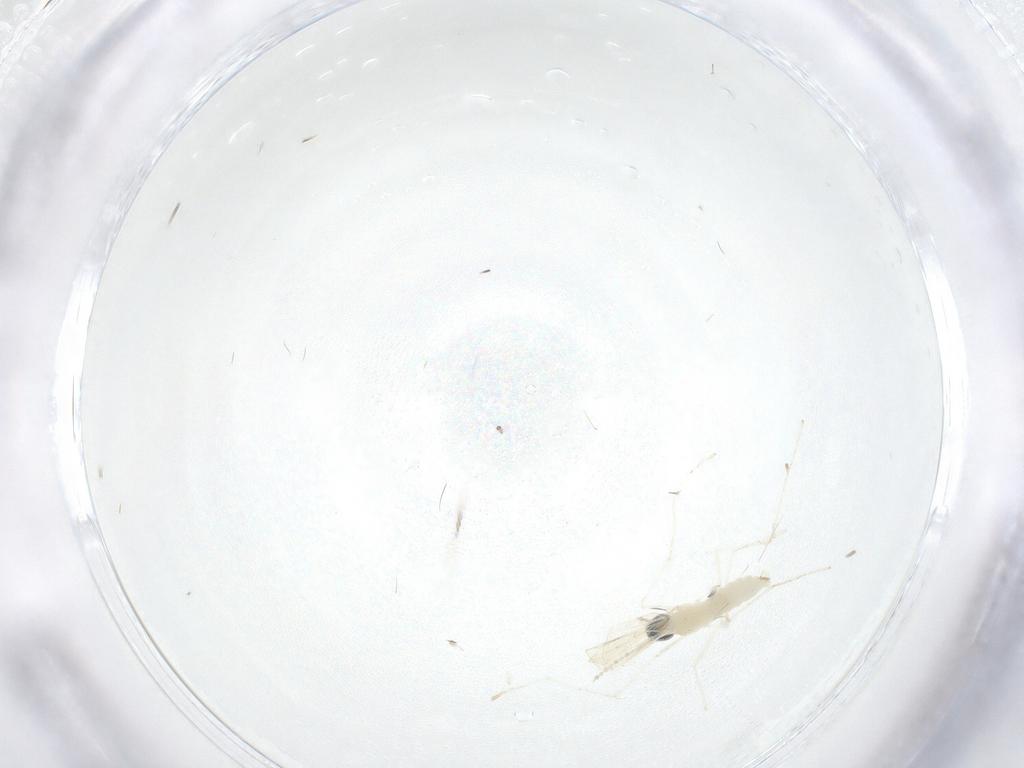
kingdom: Animalia
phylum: Arthropoda
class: Insecta
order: Diptera
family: Cecidomyiidae
